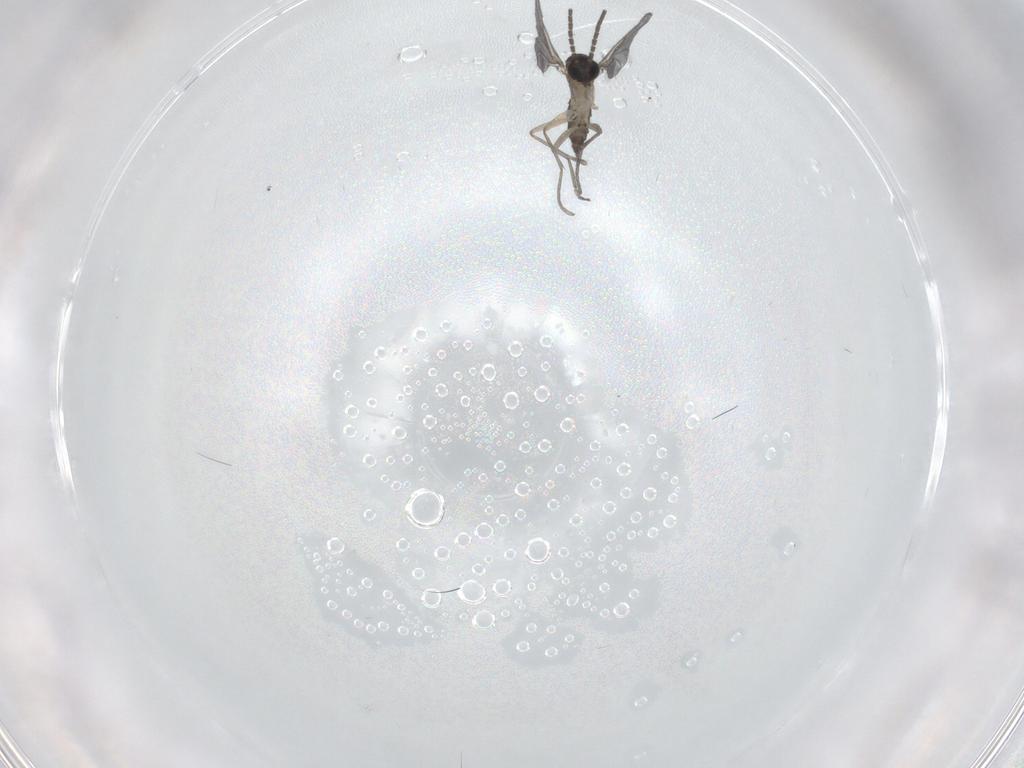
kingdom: Animalia
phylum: Arthropoda
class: Insecta
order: Diptera
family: Sciaridae
